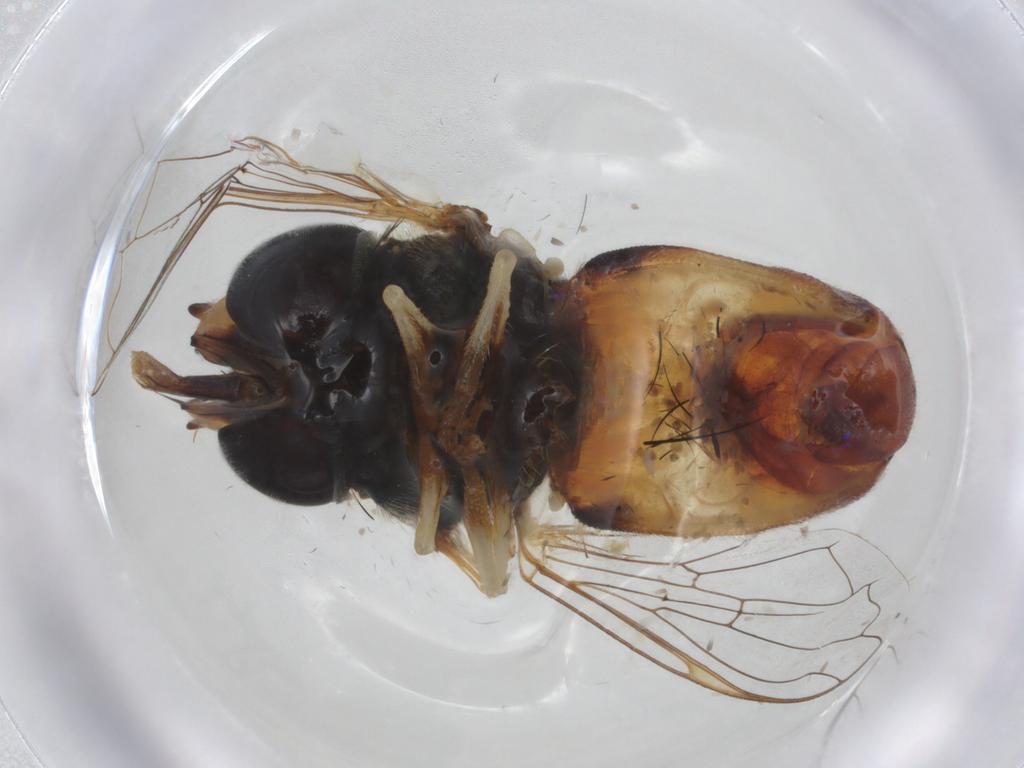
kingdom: Animalia
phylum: Arthropoda
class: Insecta
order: Diptera
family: Syrphidae
